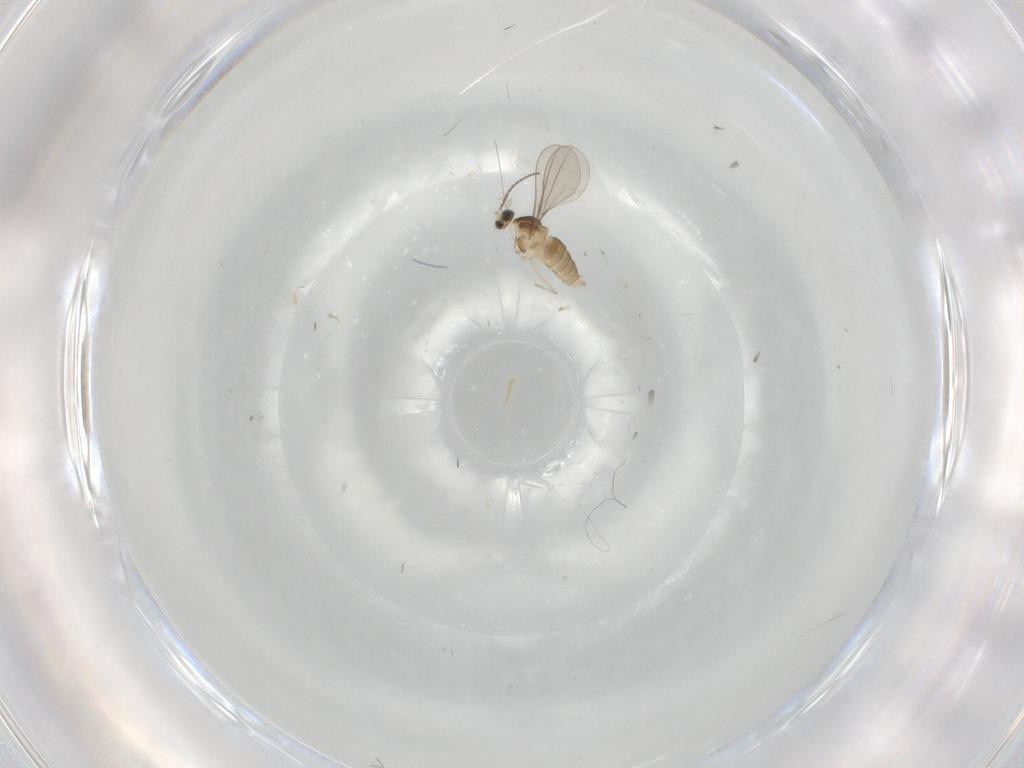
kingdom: Animalia
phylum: Arthropoda
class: Insecta
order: Diptera
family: Cecidomyiidae
